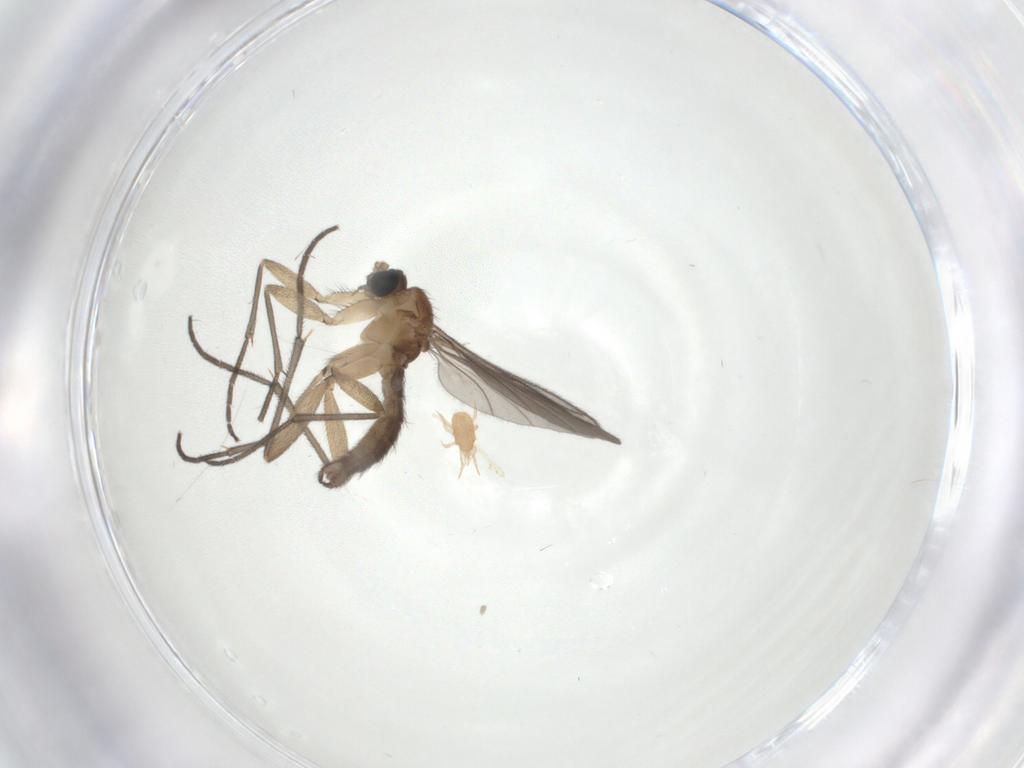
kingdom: Animalia
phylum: Arthropoda
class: Insecta
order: Diptera
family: Sciaridae
